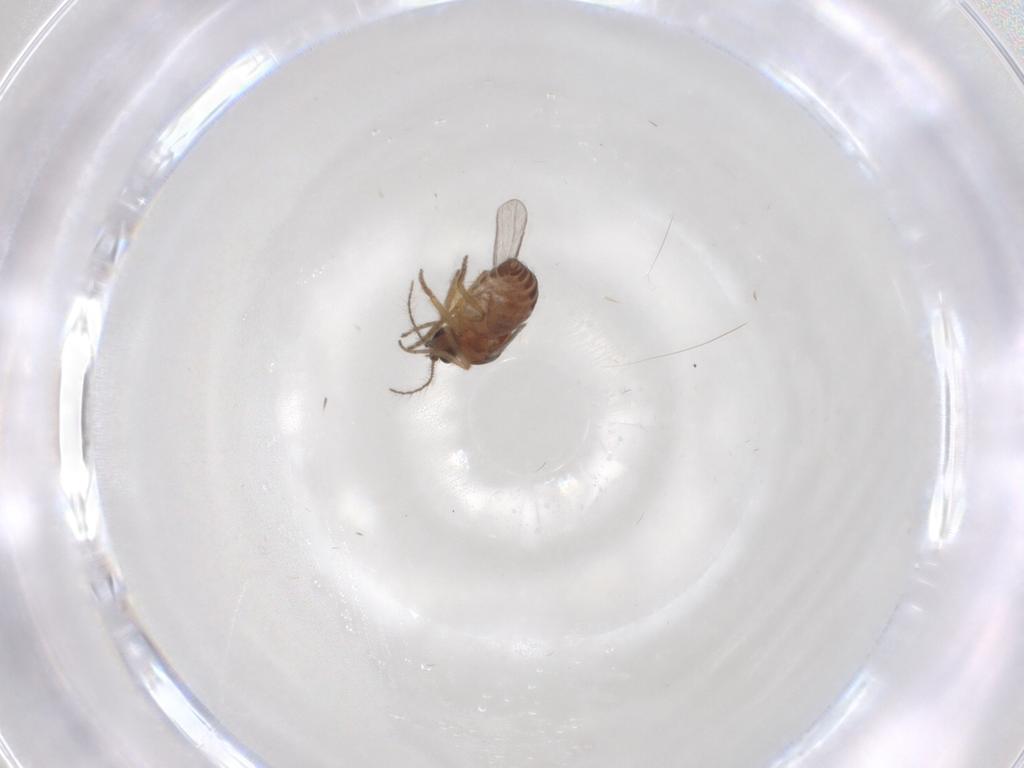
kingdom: Animalia
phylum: Arthropoda
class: Insecta
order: Diptera
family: Ceratopogonidae
